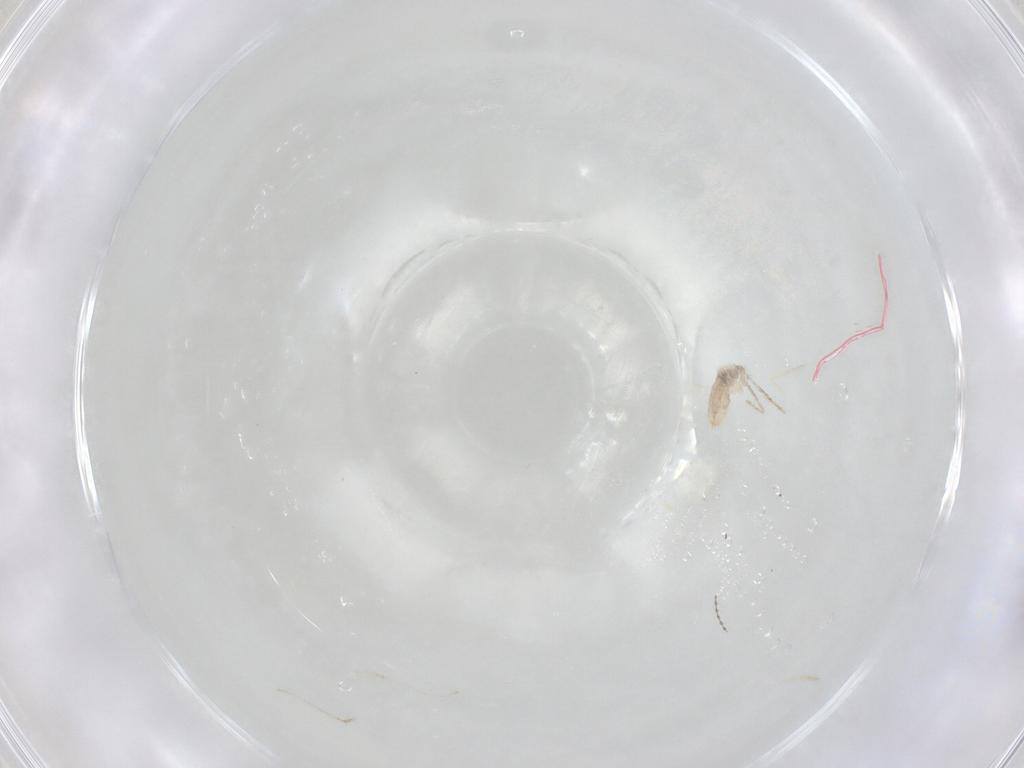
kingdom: Animalia
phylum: Arthropoda
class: Insecta
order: Diptera
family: Cecidomyiidae
